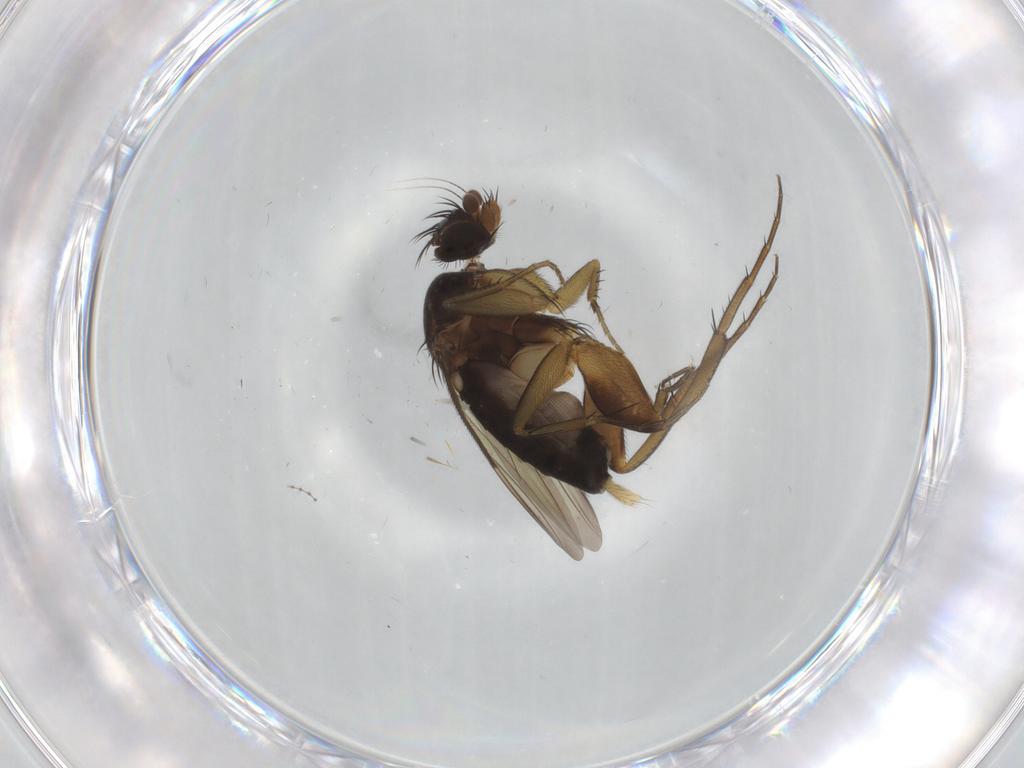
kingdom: Animalia
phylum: Arthropoda
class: Insecta
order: Diptera
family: Phoridae
